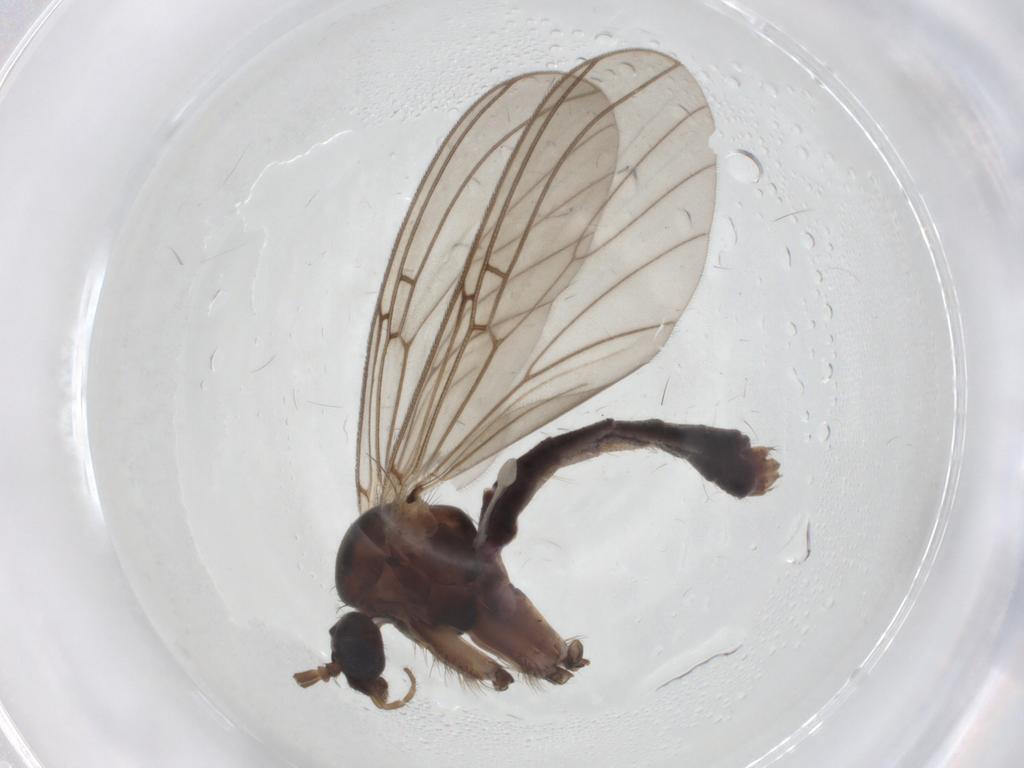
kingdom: Animalia
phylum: Arthropoda
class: Insecta
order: Diptera
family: Mycetophilidae
